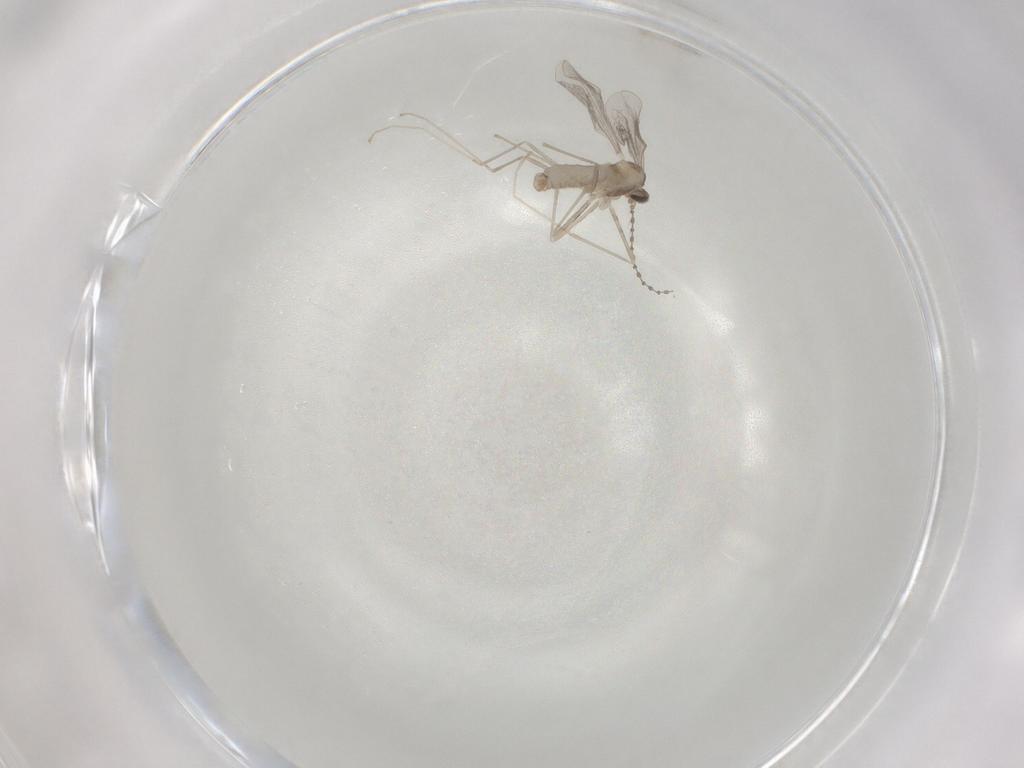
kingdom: Animalia
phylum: Arthropoda
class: Insecta
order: Diptera
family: Cecidomyiidae
